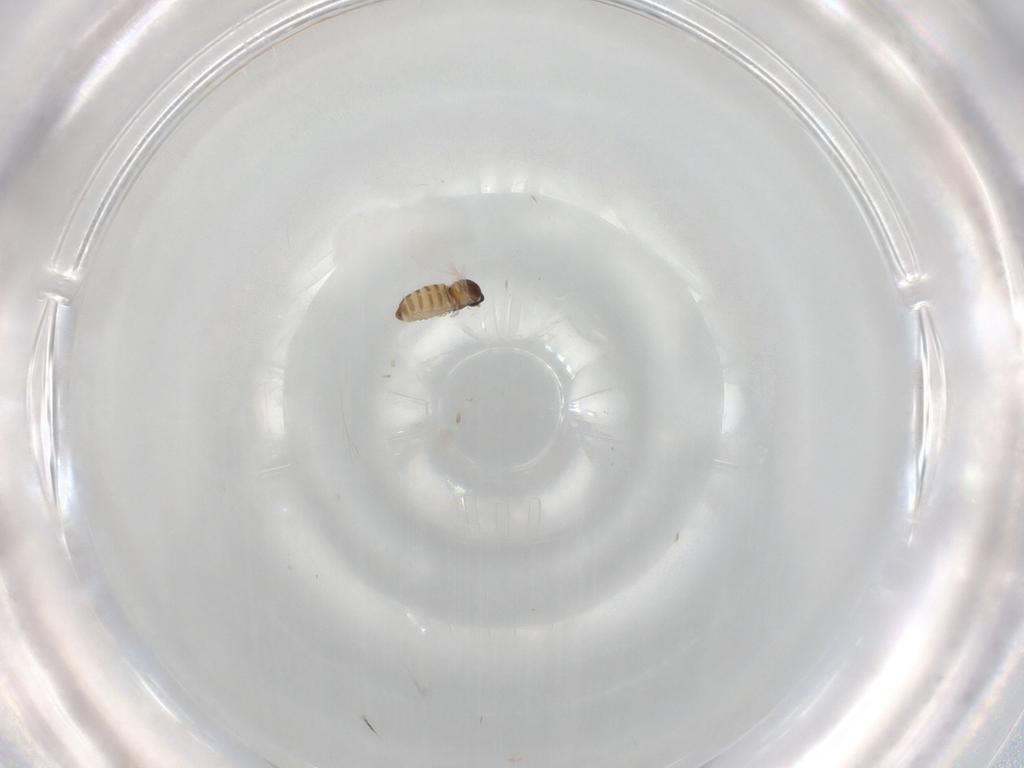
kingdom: Animalia
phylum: Arthropoda
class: Insecta
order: Diptera
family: Cecidomyiidae
